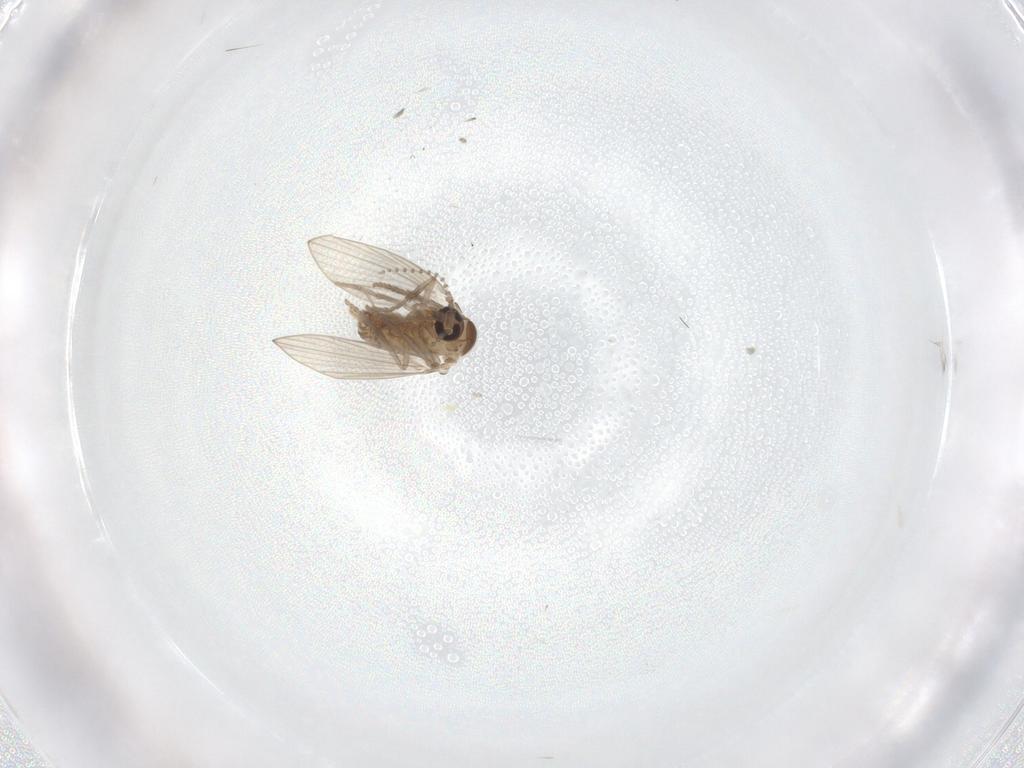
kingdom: Animalia
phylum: Arthropoda
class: Insecta
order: Diptera
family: Psychodidae
